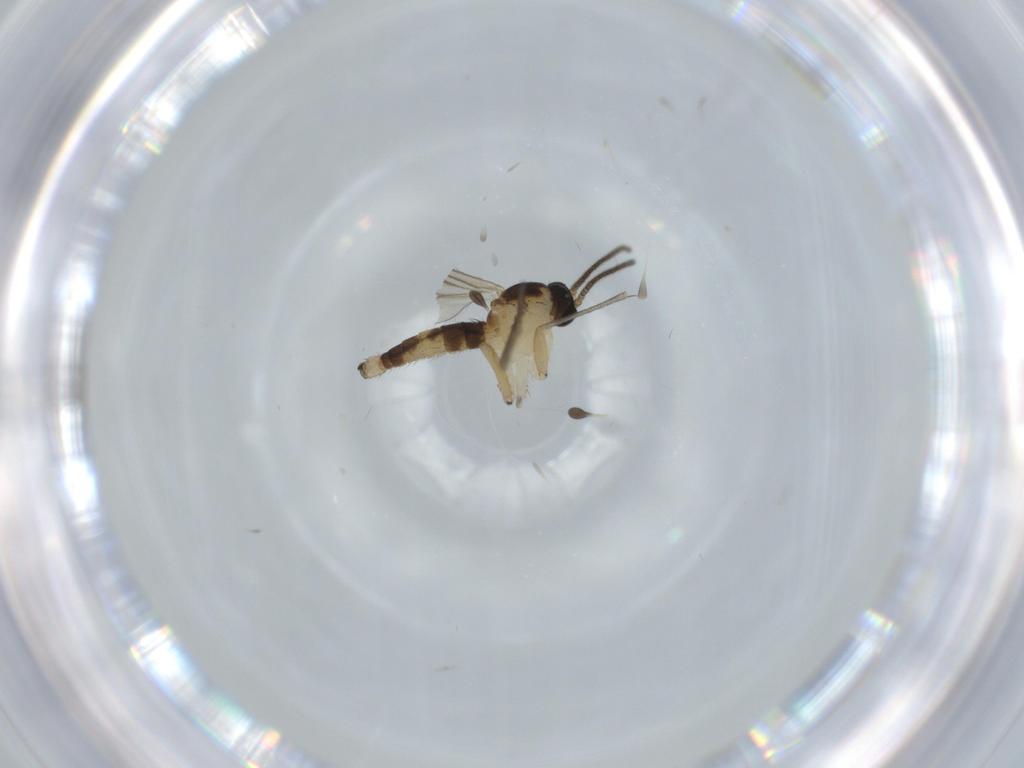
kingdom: Animalia
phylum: Arthropoda
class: Insecta
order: Diptera
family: Sciaridae
